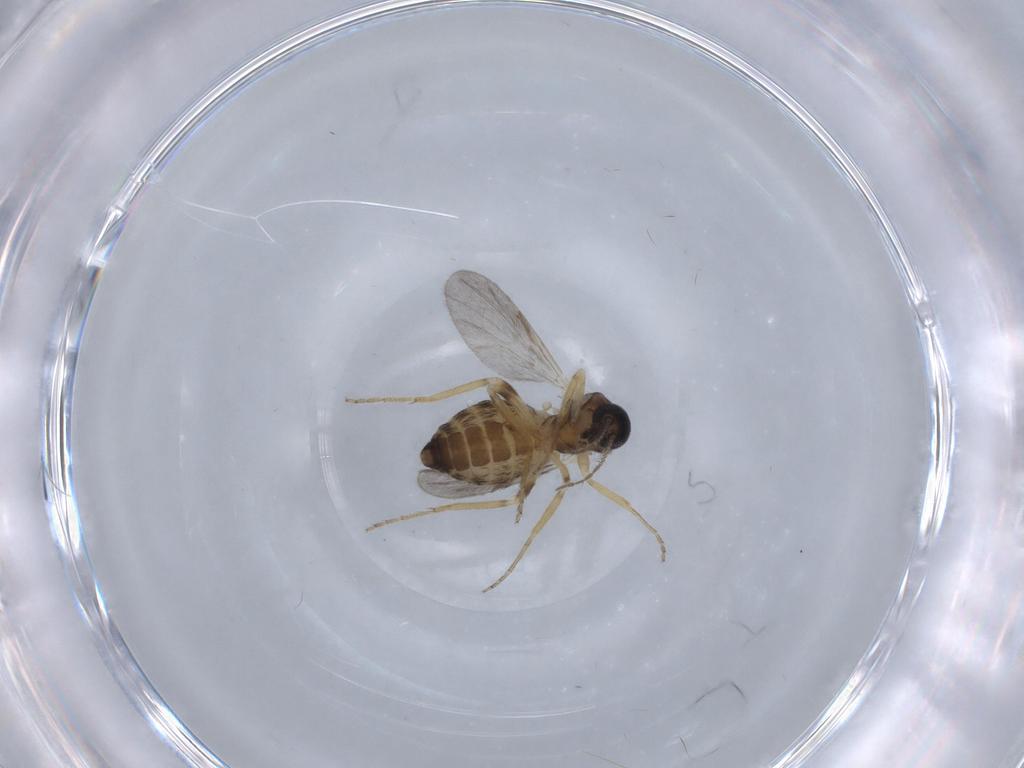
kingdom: Animalia
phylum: Arthropoda
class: Insecta
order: Diptera
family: Ceratopogonidae
